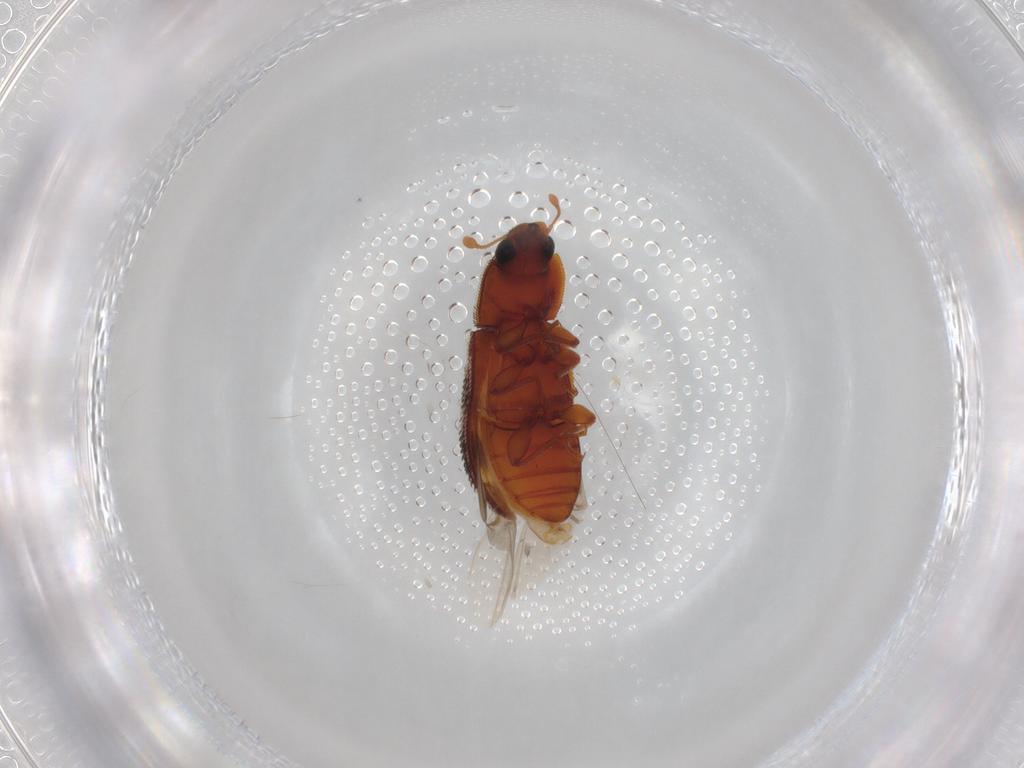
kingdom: Animalia
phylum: Arthropoda
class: Insecta
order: Coleoptera
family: Zopheridae
